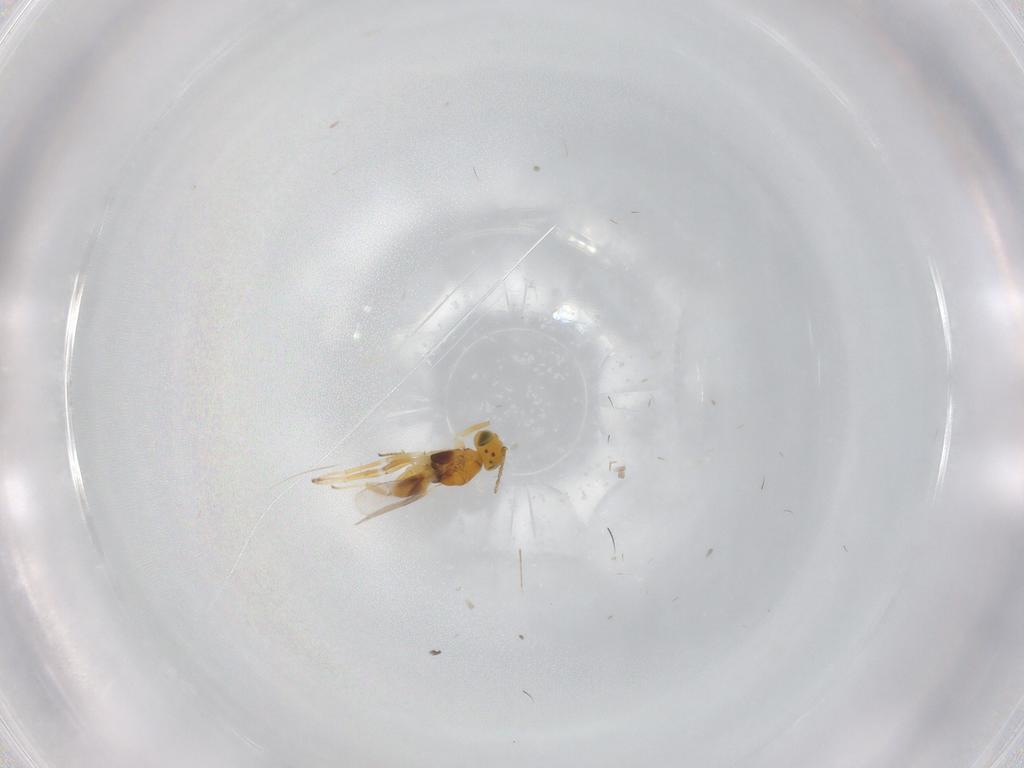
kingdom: Animalia
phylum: Arthropoda
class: Insecta
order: Hymenoptera
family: Encyrtidae
